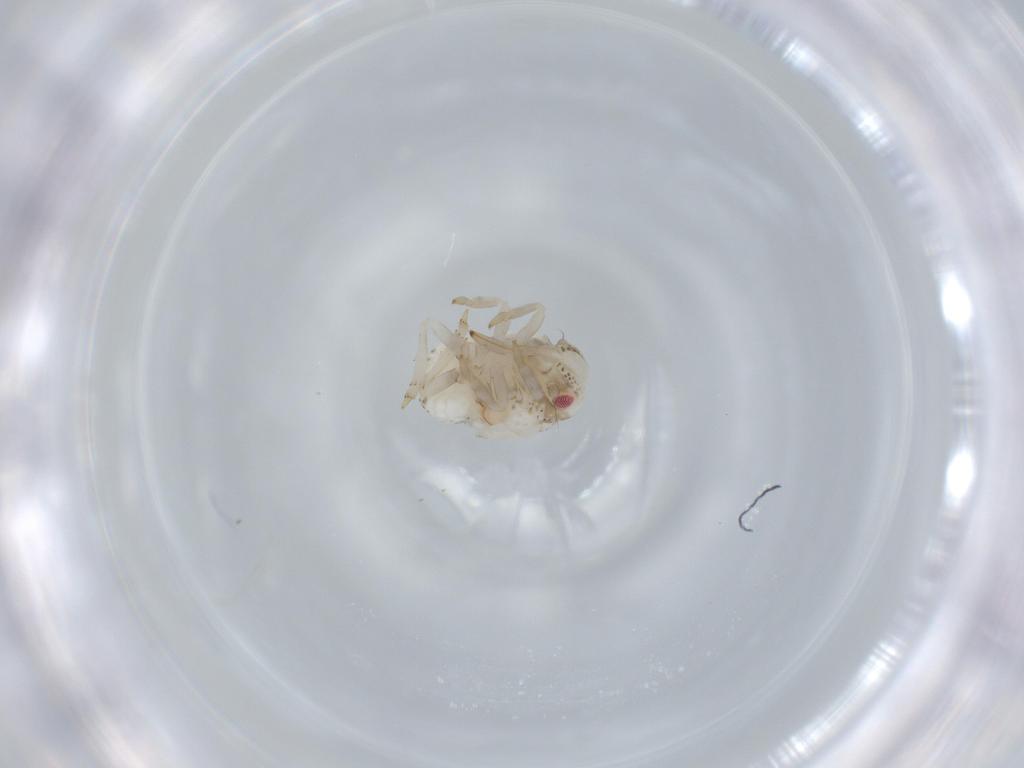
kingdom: Animalia
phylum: Arthropoda
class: Insecta
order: Hemiptera
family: Acanaloniidae
